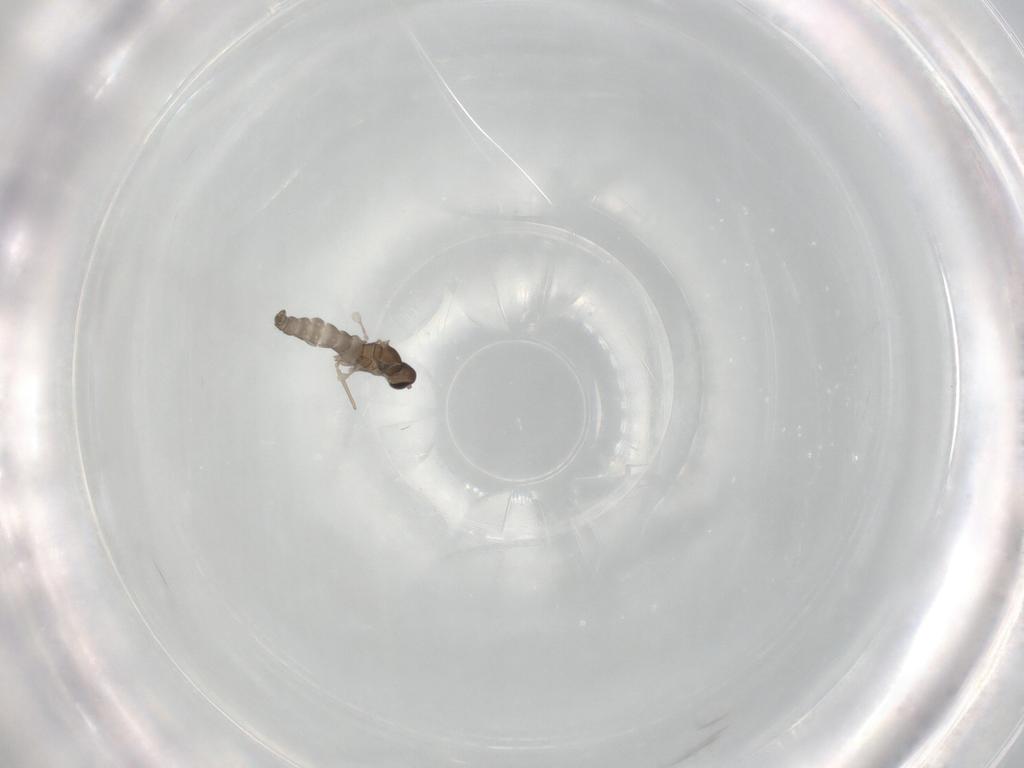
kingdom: Animalia
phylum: Arthropoda
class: Insecta
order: Diptera
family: Cecidomyiidae
